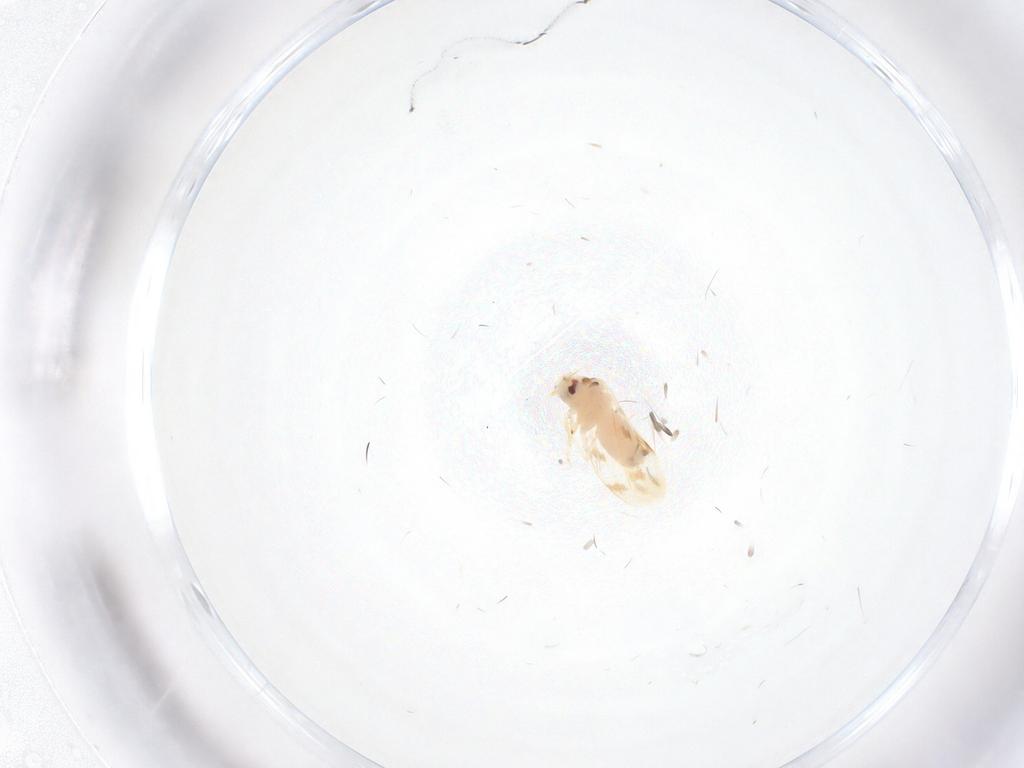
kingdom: Animalia
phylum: Arthropoda
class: Insecta
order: Hemiptera
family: Aleyrodidae
